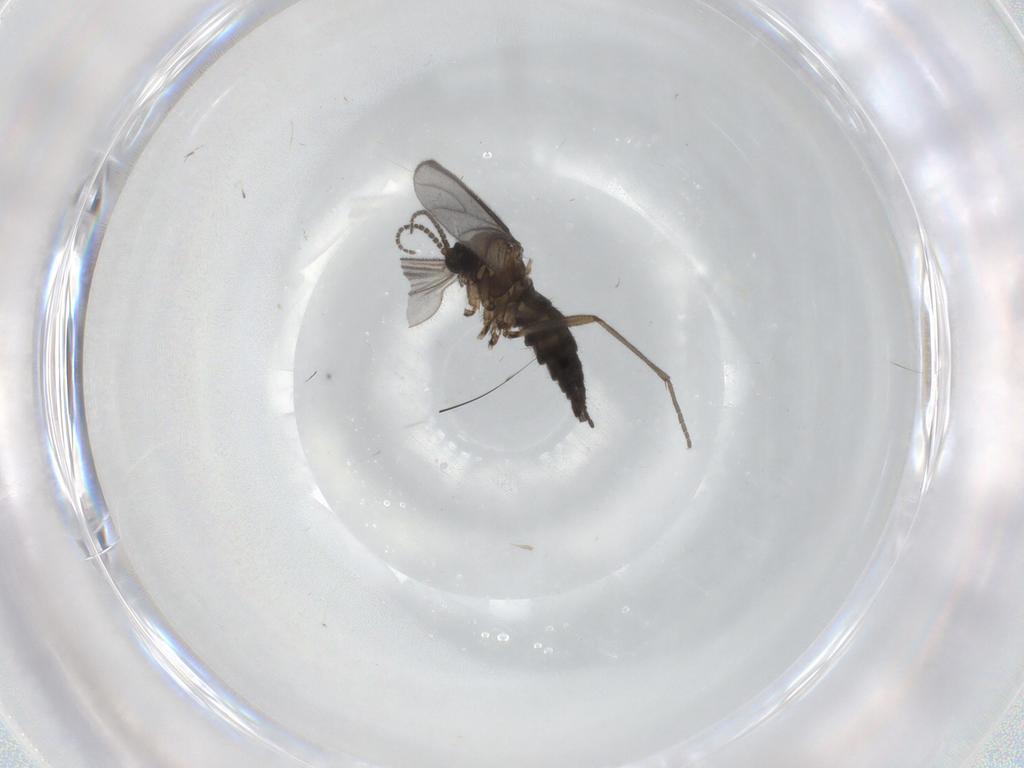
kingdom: Animalia
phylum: Arthropoda
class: Insecta
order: Diptera
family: Sciaridae
